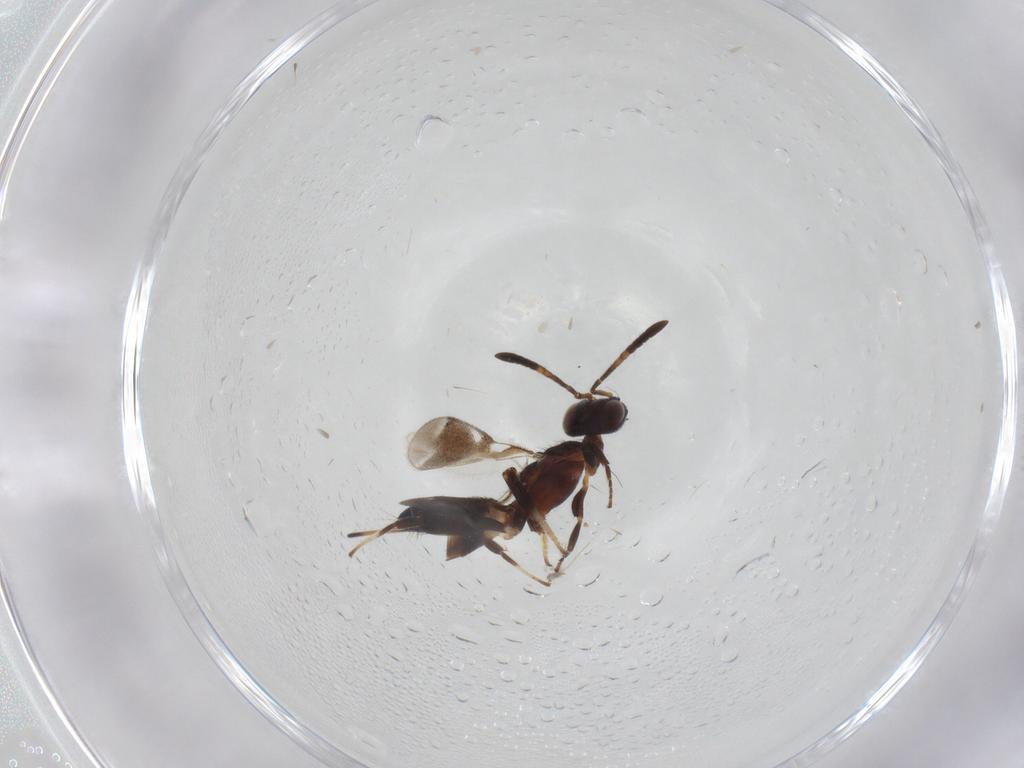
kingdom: Animalia
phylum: Arthropoda
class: Insecta
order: Hymenoptera
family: Eupelmidae
